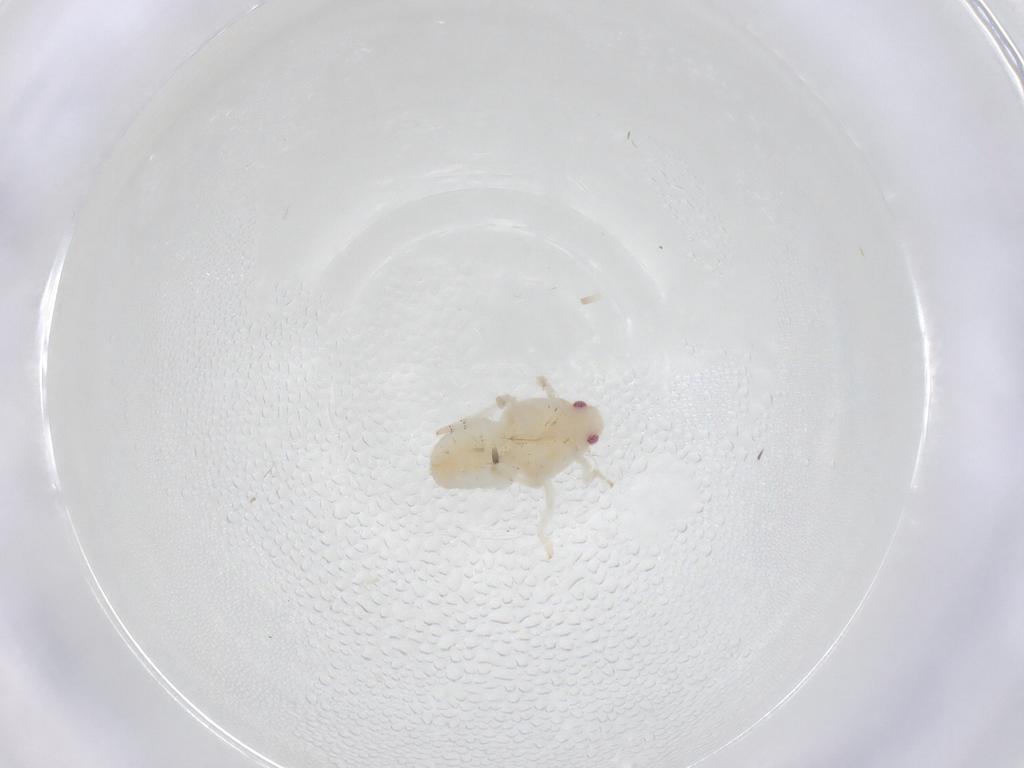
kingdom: Animalia
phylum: Arthropoda
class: Insecta
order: Hemiptera
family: Flatidae
